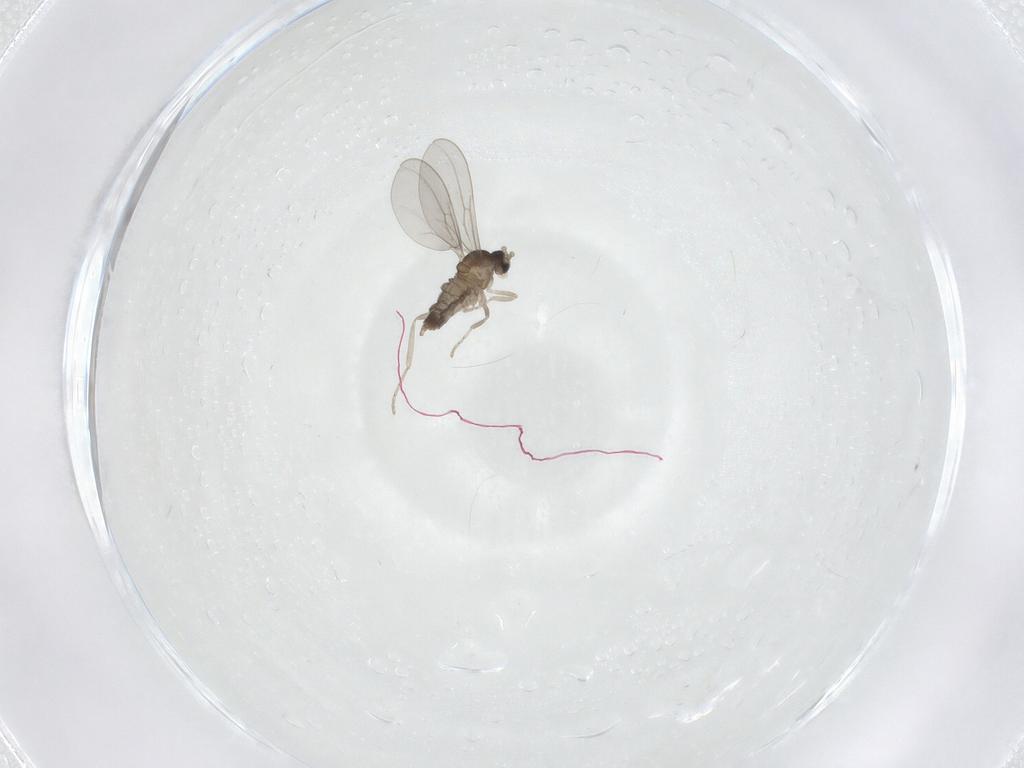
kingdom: Animalia
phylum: Arthropoda
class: Insecta
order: Diptera
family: Cecidomyiidae
